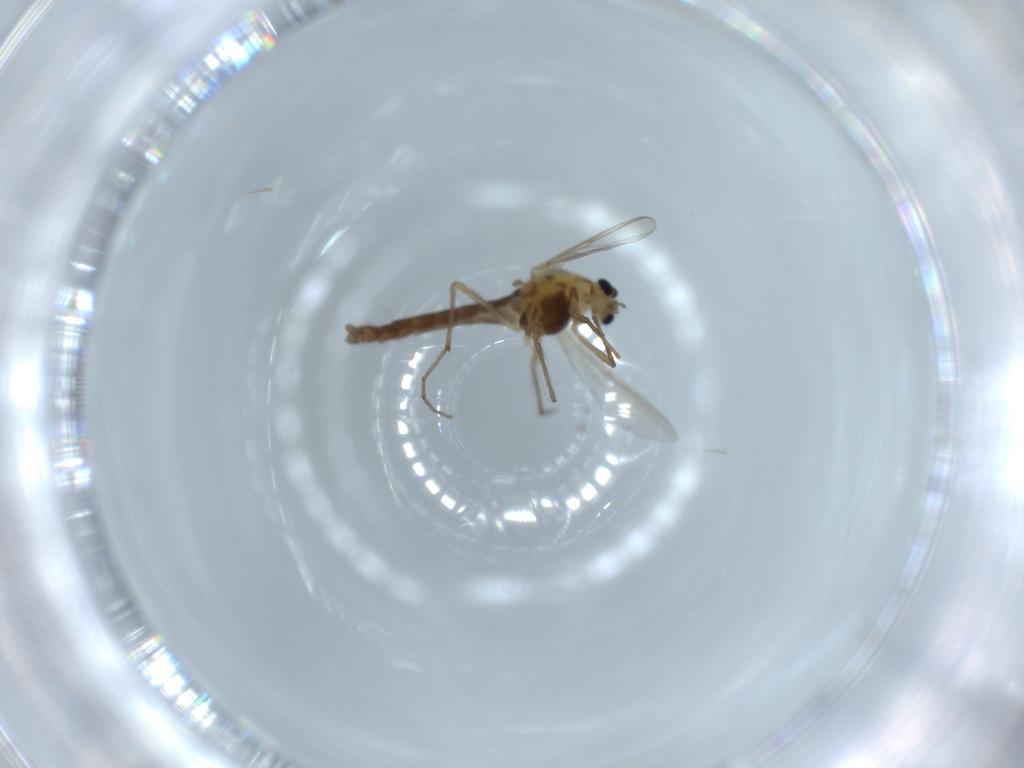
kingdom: Animalia
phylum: Arthropoda
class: Insecta
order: Diptera
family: Chironomidae
